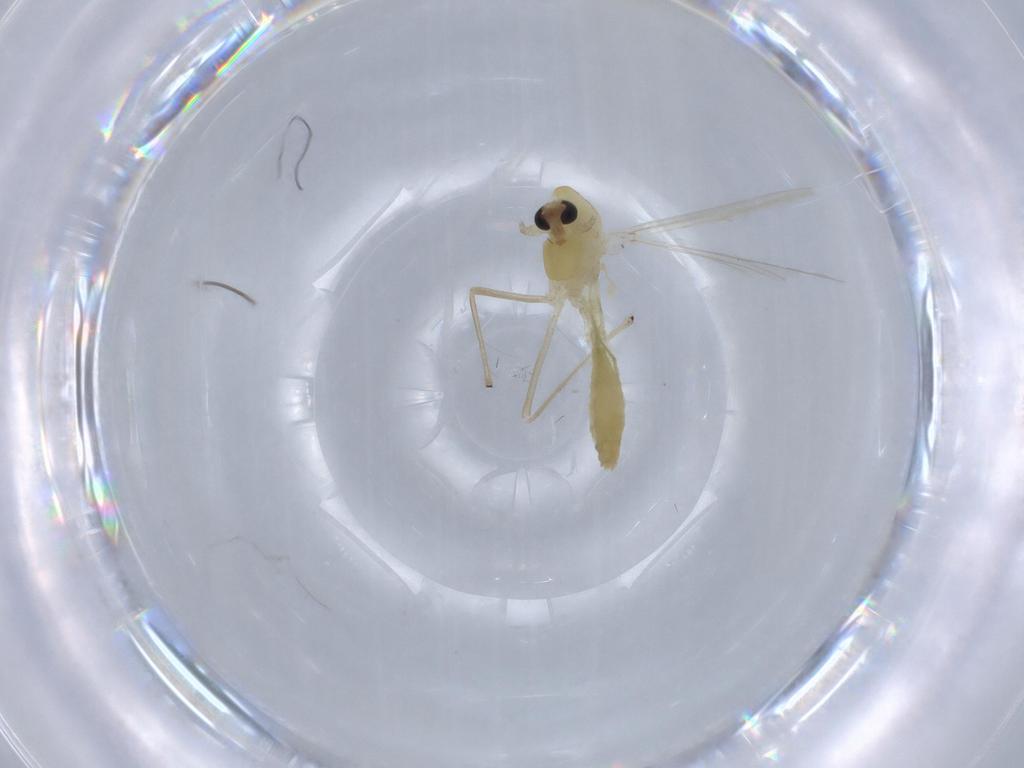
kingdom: Animalia
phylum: Arthropoda
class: Insecta
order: Diptera
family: Chironomidae
